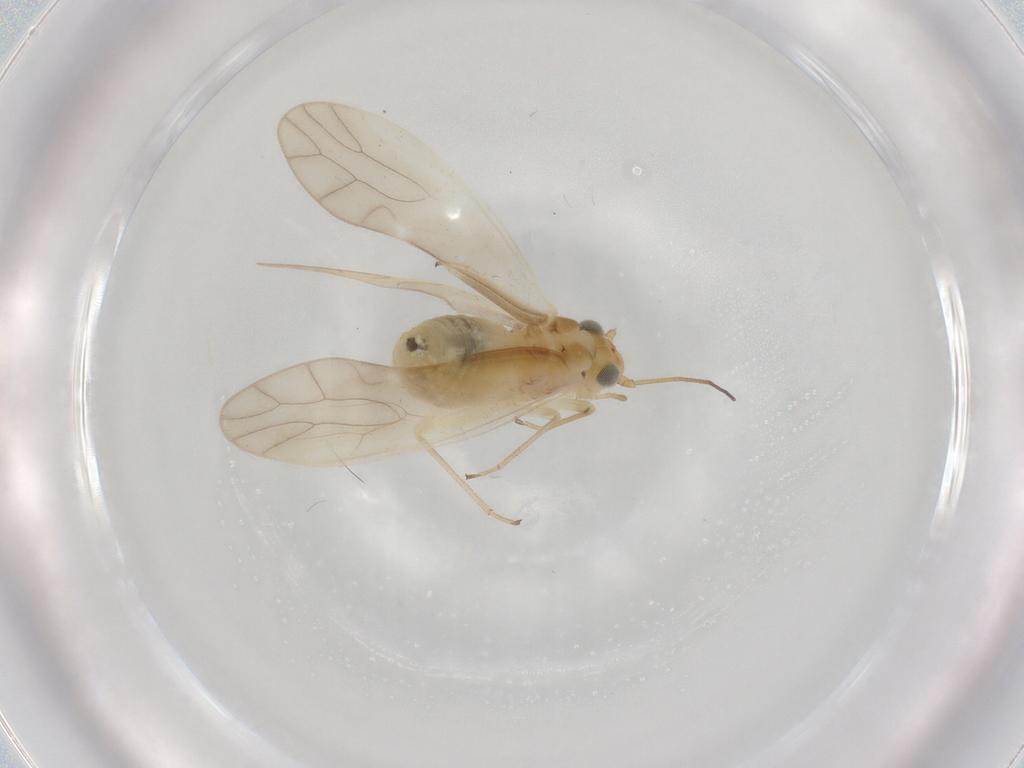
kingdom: Animalia
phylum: Arthropoda
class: Insecta
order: Psocodea
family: Caeciliusidae
